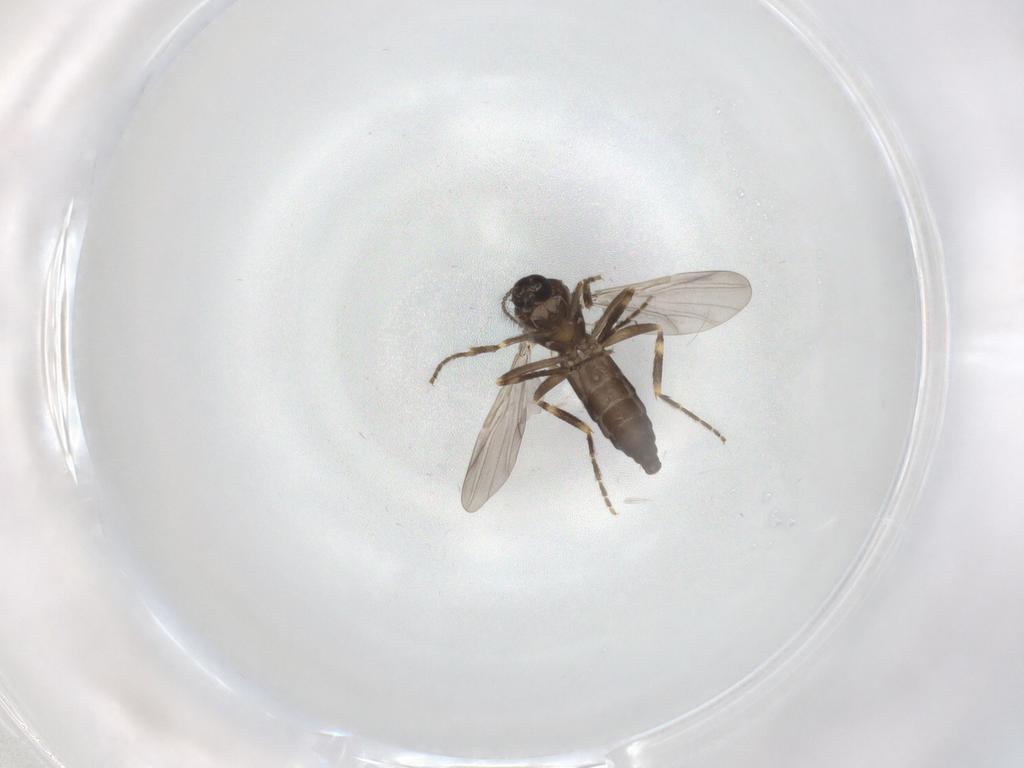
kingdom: Animalia
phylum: Arthropoda
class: Insecta
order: Diptera
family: Ceratopogonidae
